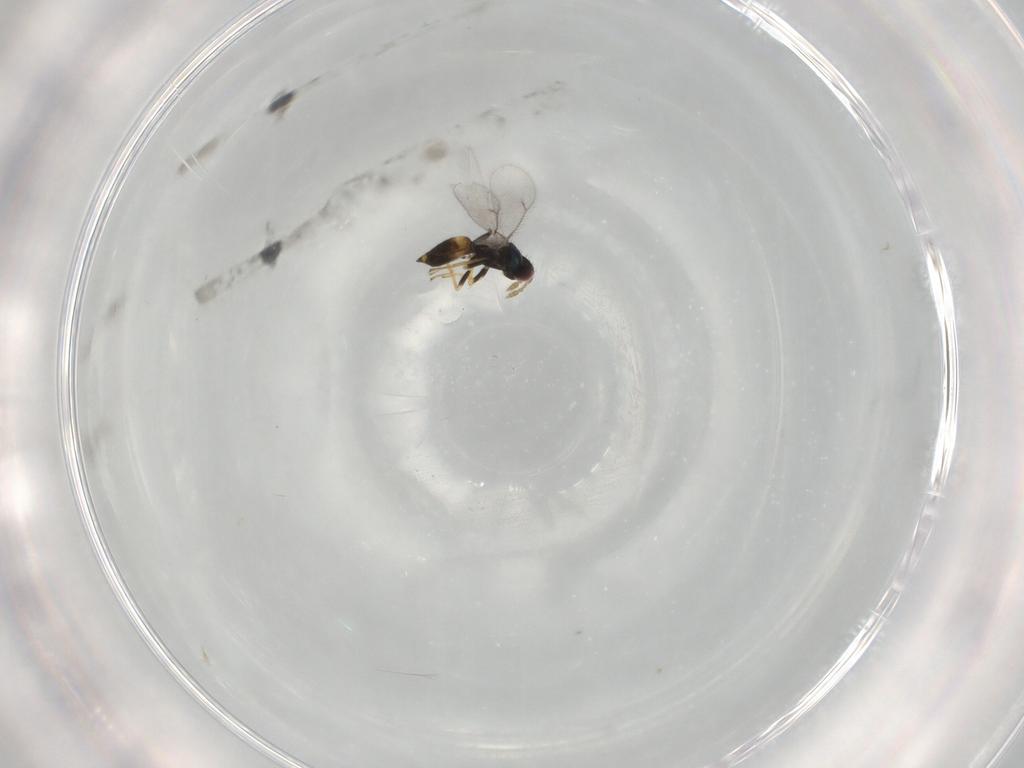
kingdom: Animalia
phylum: Arthropoda
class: Insecta
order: Hymenoptera
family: Eulophidae
